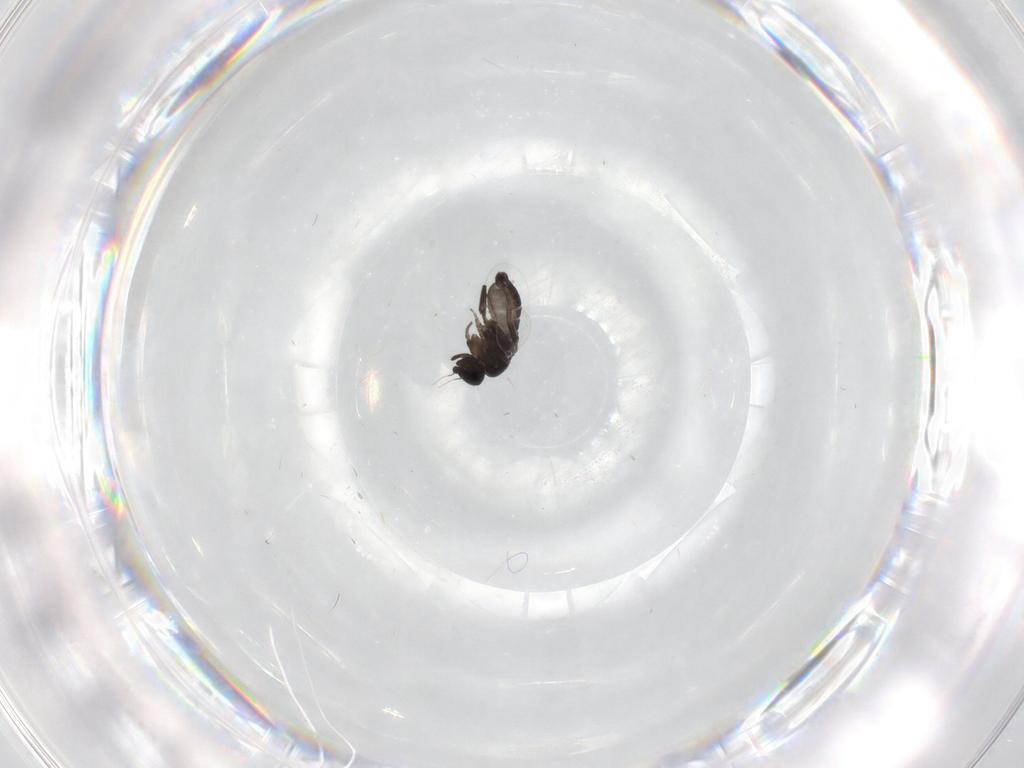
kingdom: Animalia
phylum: Arthropoda
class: Insecta
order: Diptera
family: Phoridae
